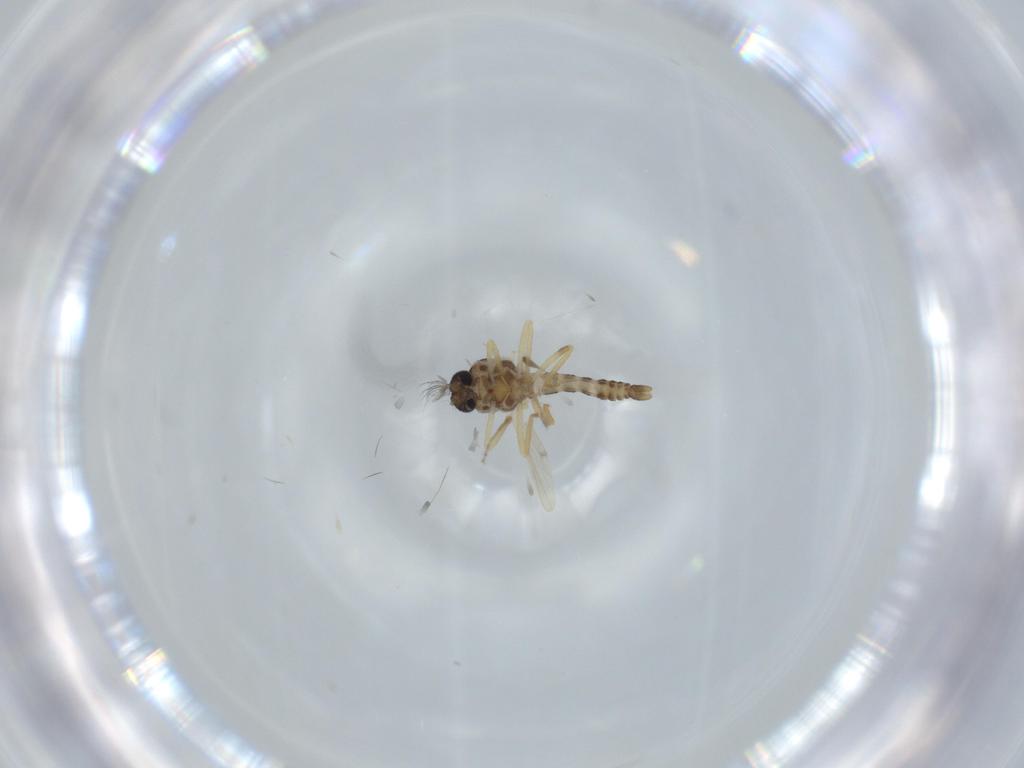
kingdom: Animalia
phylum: Arthropoda
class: Insecta
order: Diptera
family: Ceratopogonidae
